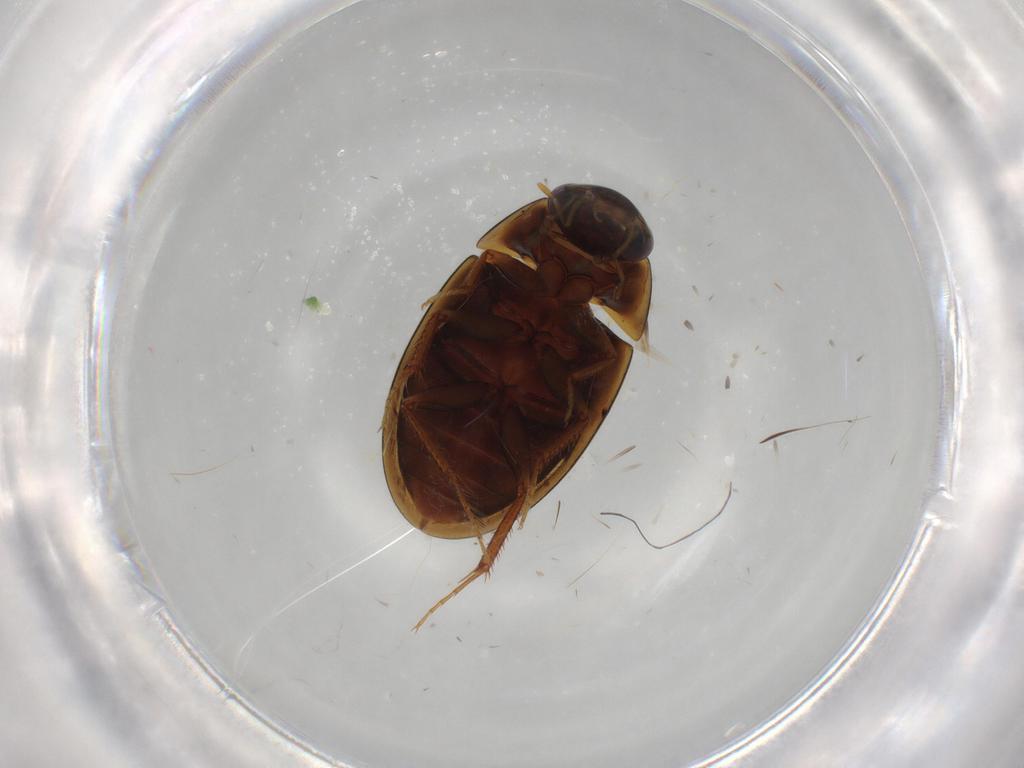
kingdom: Animalia
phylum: Arthropoda
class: Insecta
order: Coleoptera
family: Hydrophilidae
